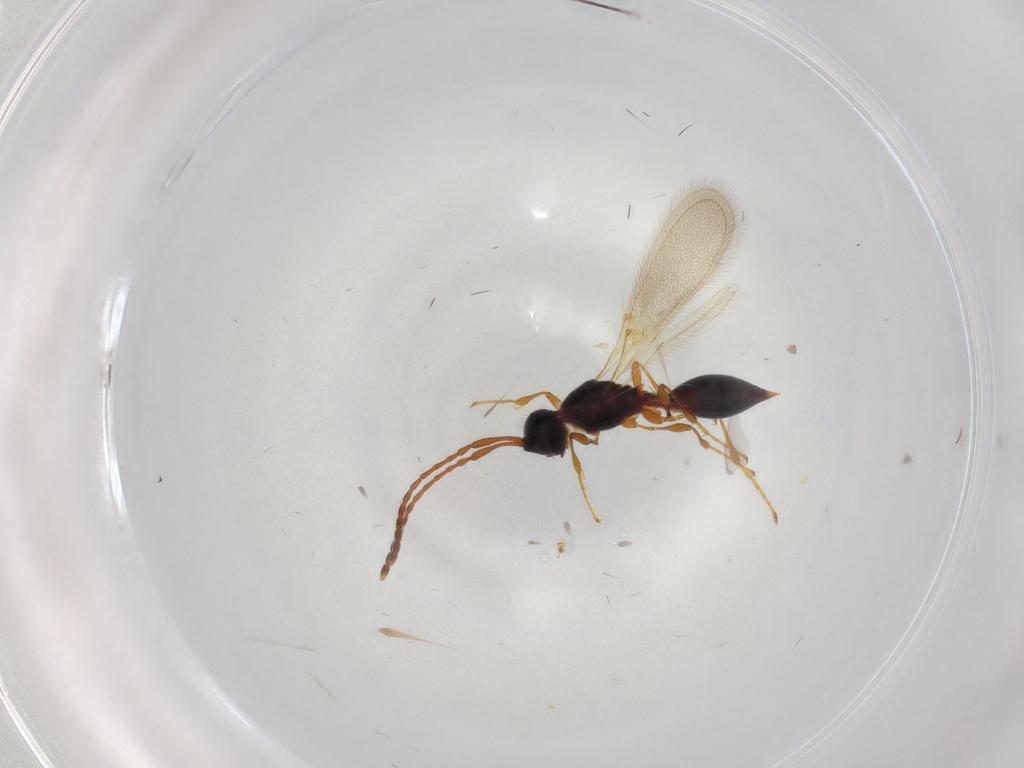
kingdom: Animalia
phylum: Arthropoda
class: Insecta
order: Hymenoptera
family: Diapriidae
